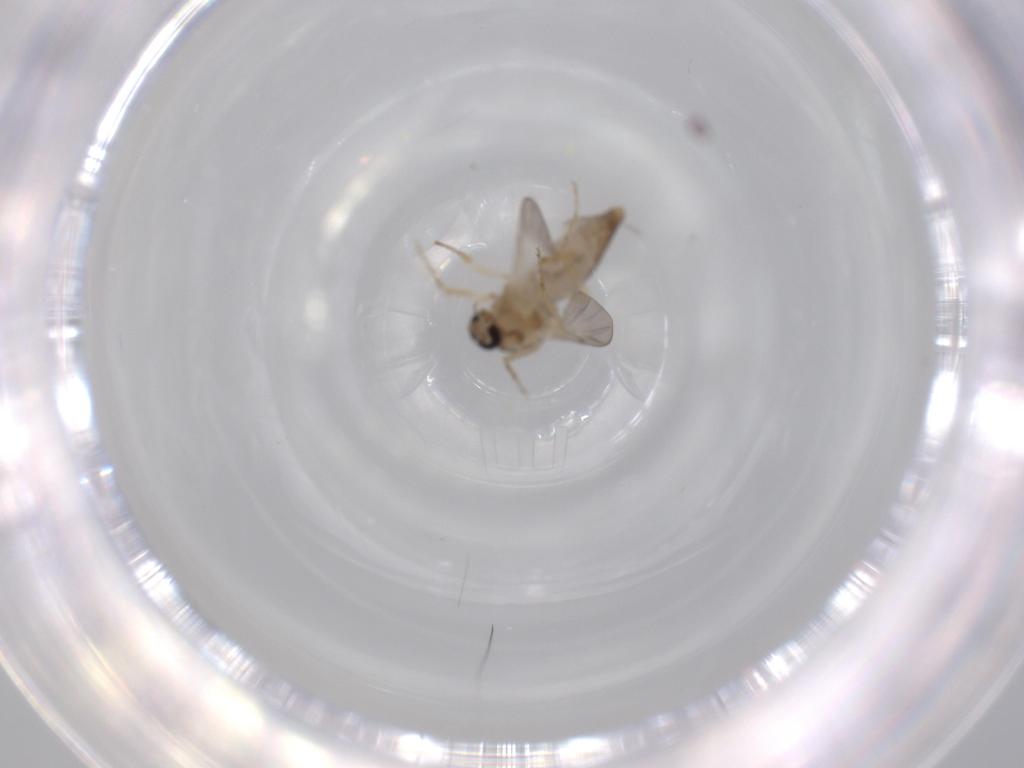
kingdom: Animalia
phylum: Arthropoda
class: Insecta
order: Diptera
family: Ceratopogonidae
